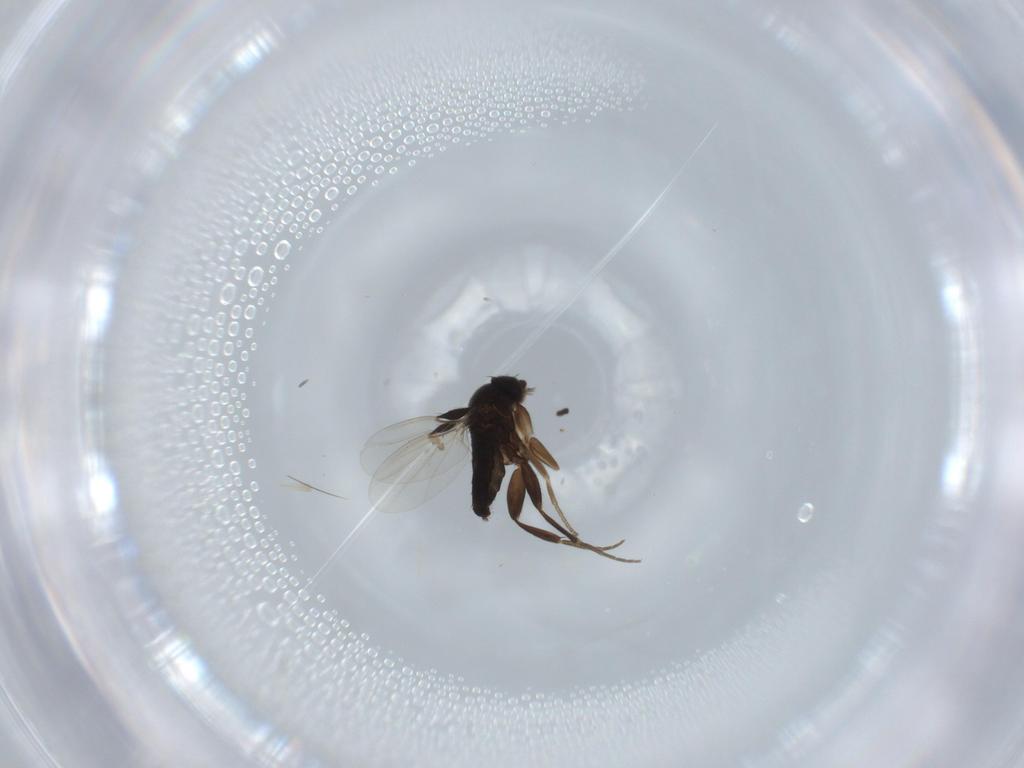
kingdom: Animalia
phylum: Arthropoda
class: Insecta
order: Diptera
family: Phoridae
